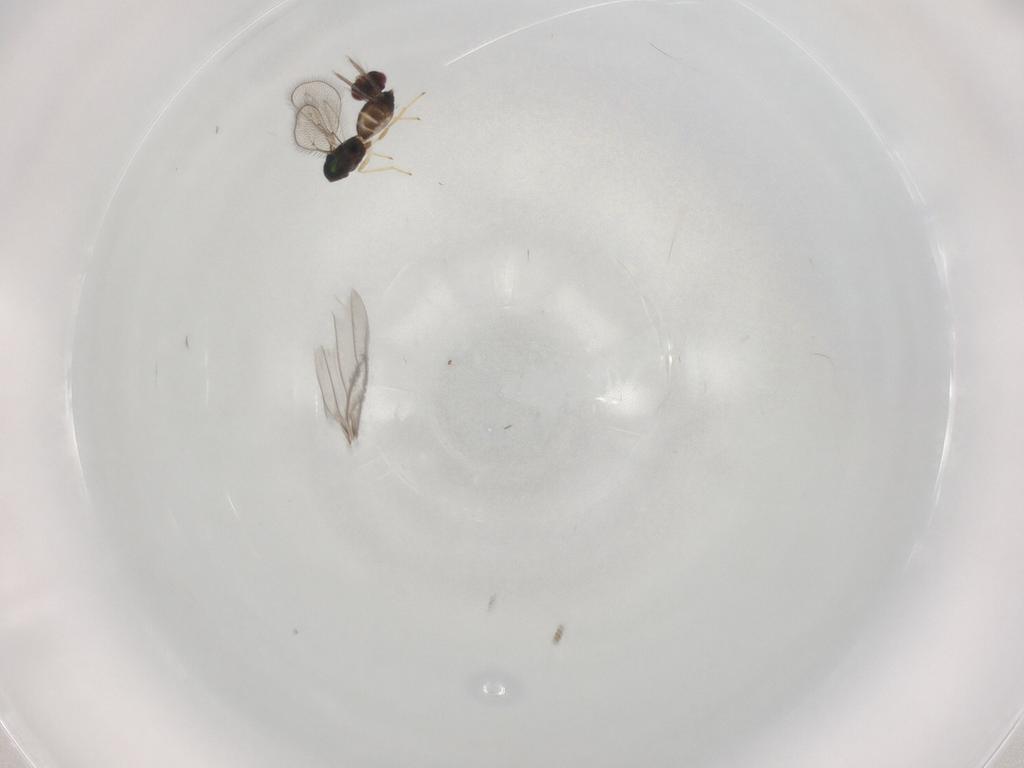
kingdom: Animalia
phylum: Arthropoda
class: Insecta
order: Hymenoptera
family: Eulophidae
